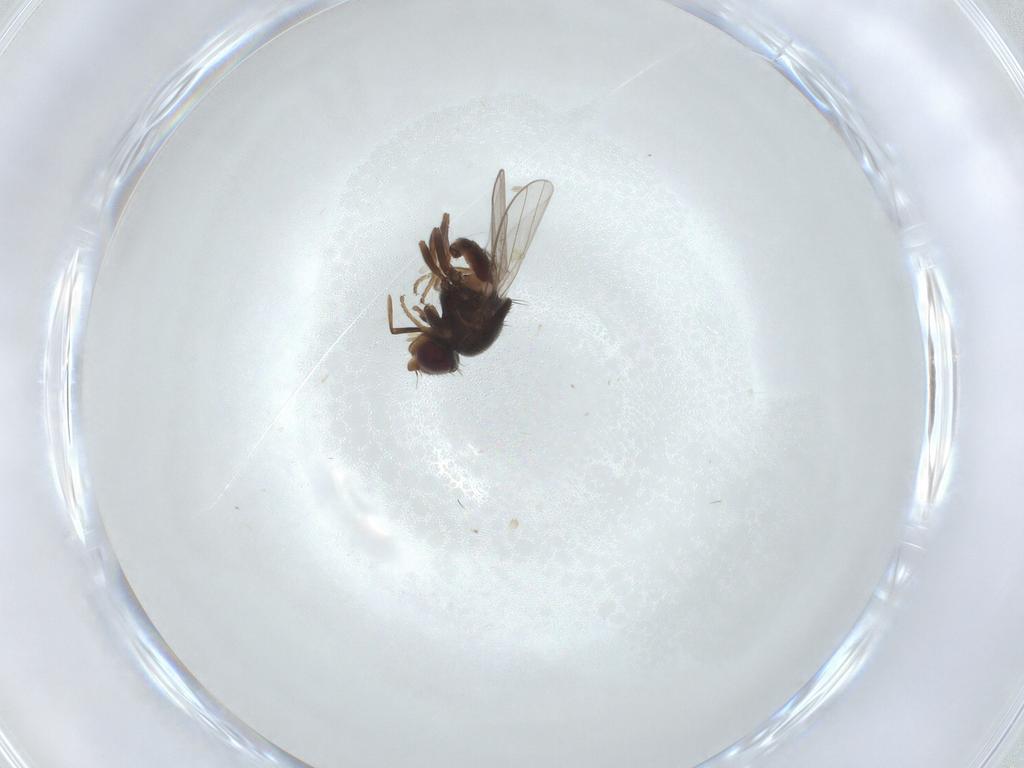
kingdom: Animalia
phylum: Arthropoda
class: Insecta
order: Diptera
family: Chloropidae
